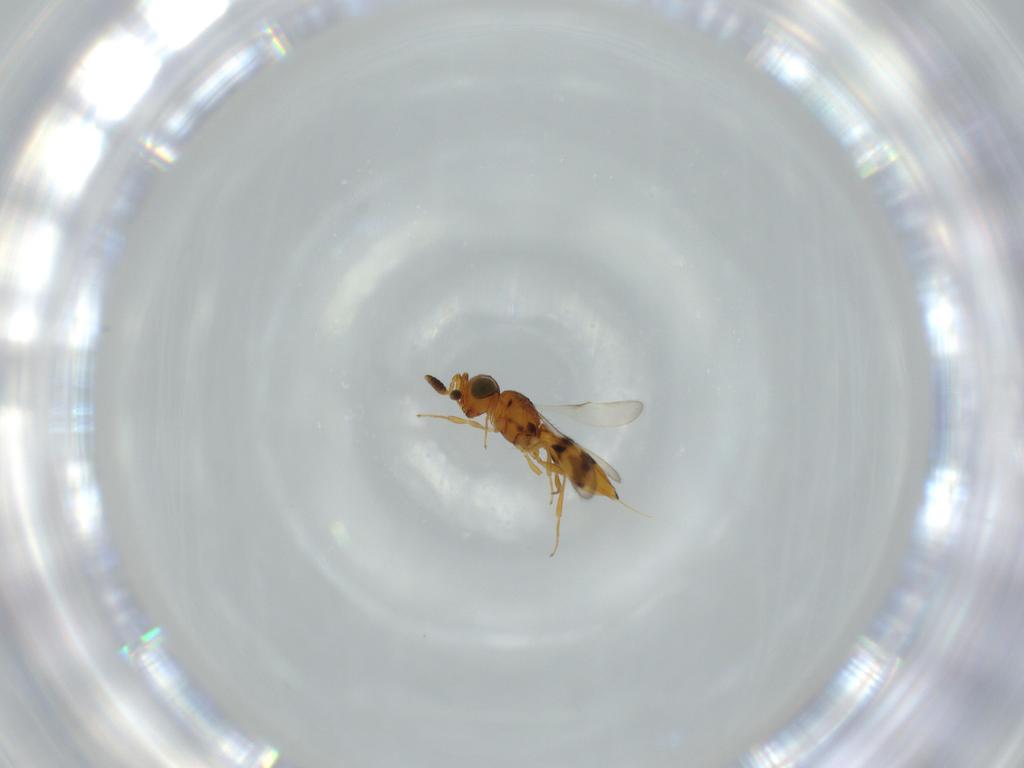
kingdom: Animalia
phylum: Arthropoda
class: Insecta
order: Hymenoptera
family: Scelionidae
